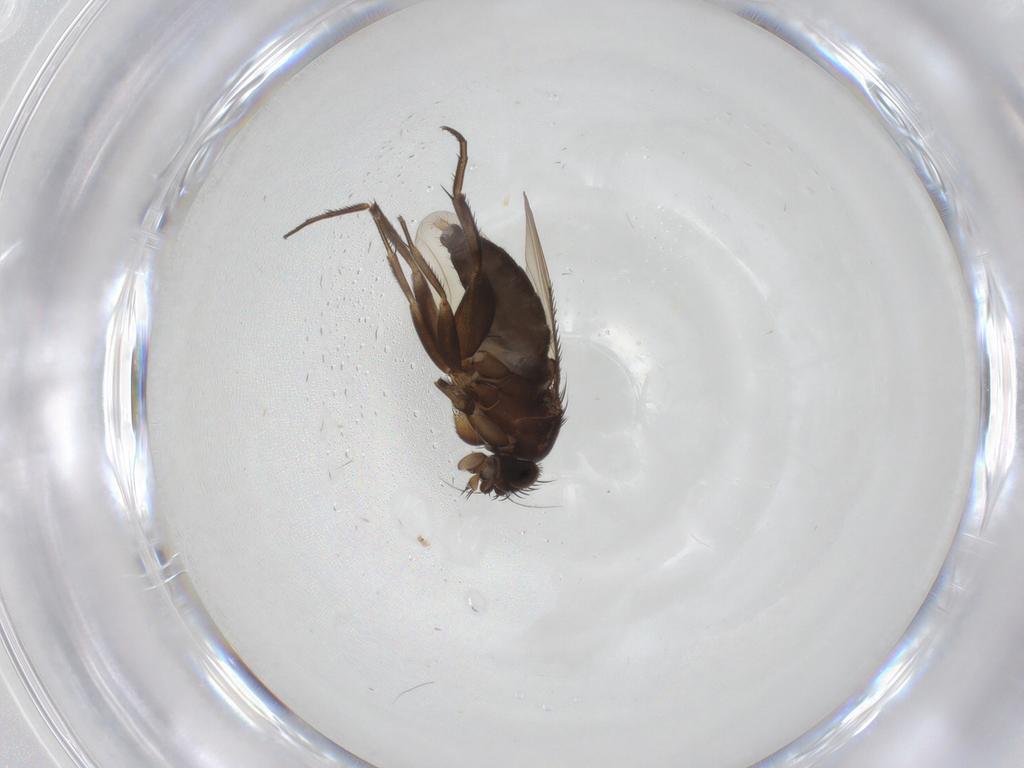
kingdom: Animalia
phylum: Arthropoda
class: Insecta
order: Diptera
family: Phoridae
